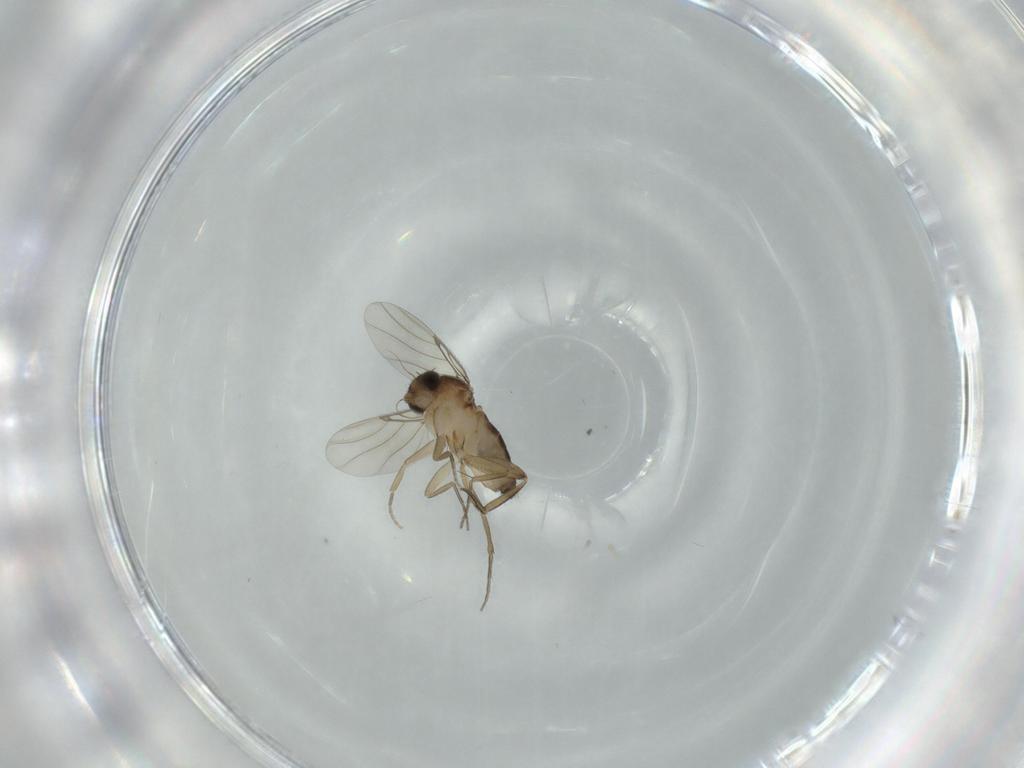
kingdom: Animalia
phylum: Arthropoda
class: Insecta
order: Diptera
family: Phoridae
